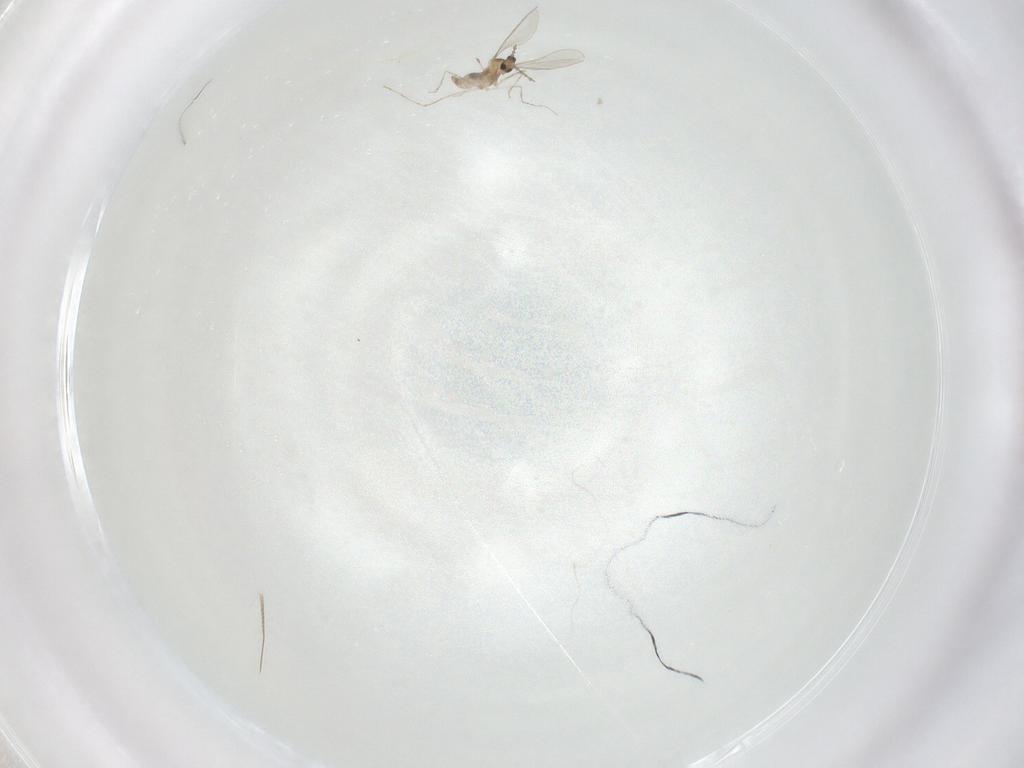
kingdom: Animalia
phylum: Arthropoda
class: Insecta
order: Diptera
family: Cecidomyiidae
